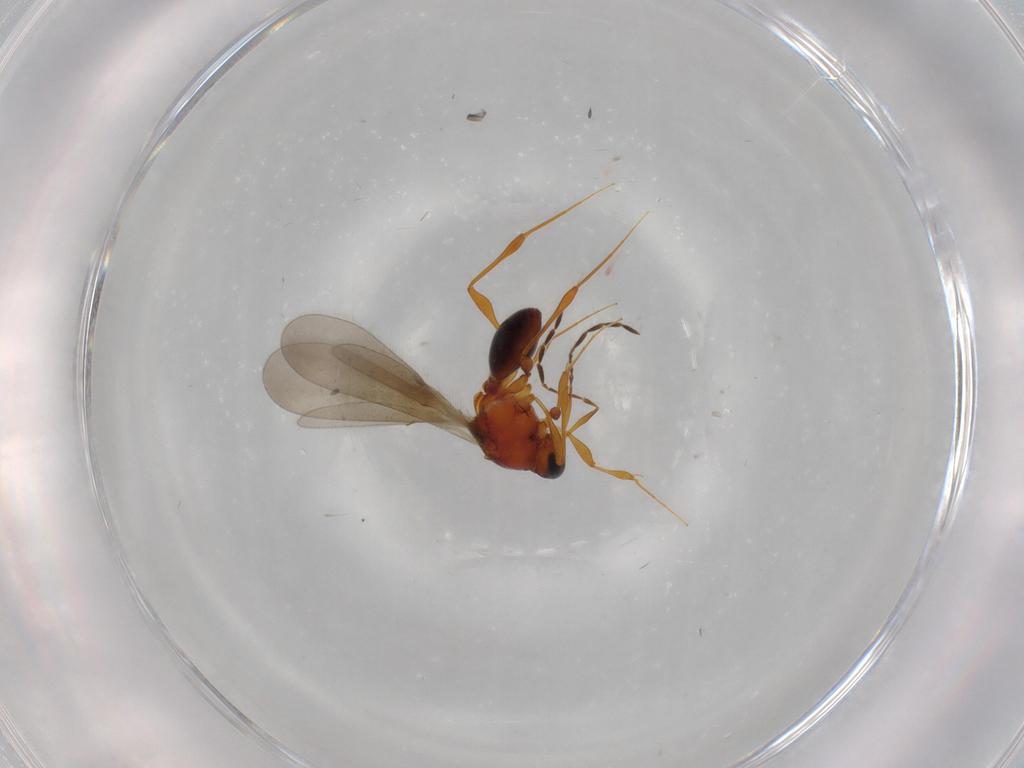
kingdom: Animalia
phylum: Arthropoda
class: Insecta
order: Hymenoptera
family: Platygastridae
